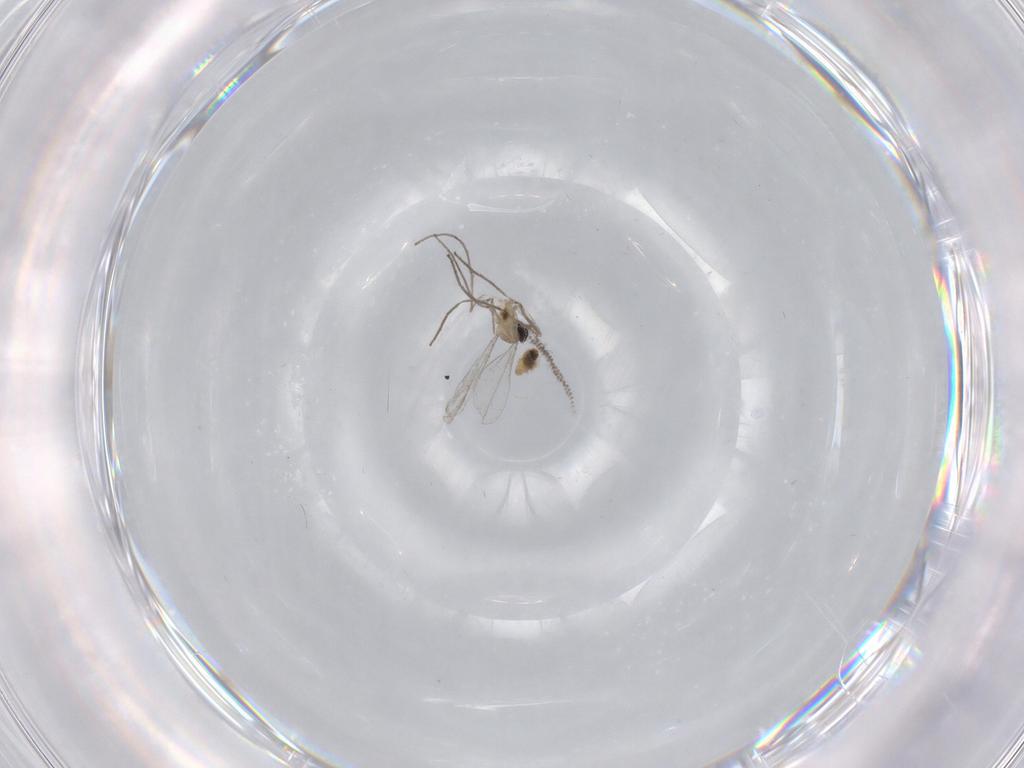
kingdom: Animalia
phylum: Arthropoda
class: Insecta
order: Diptera
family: Cecidomyiidae
